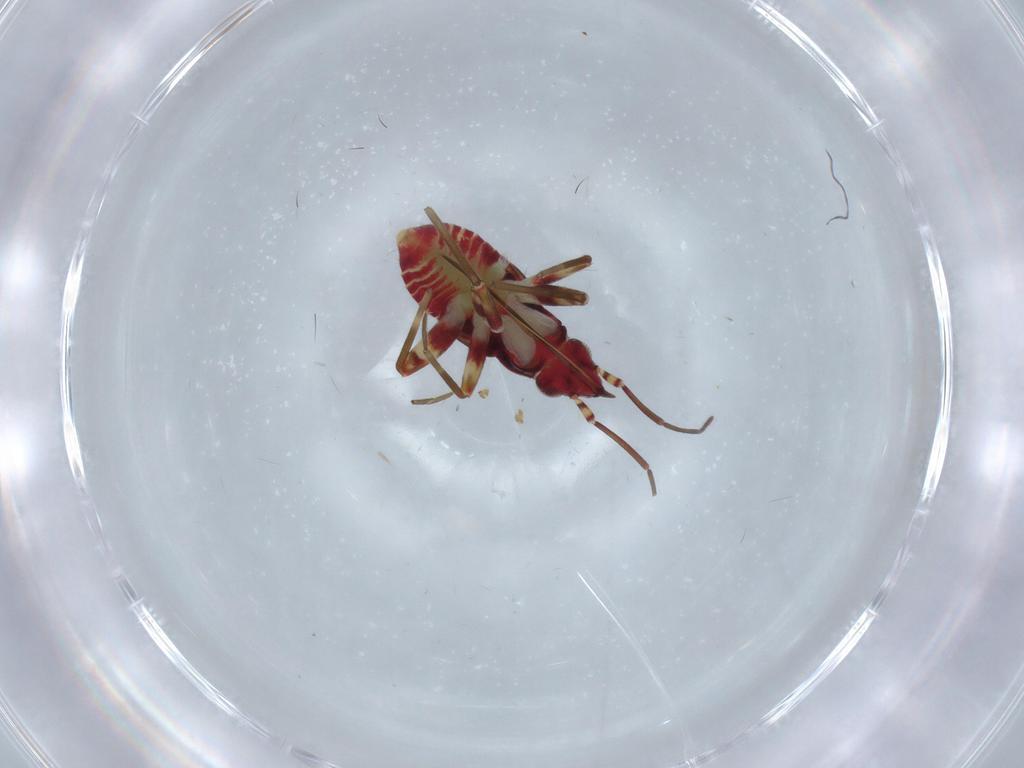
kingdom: Animalia
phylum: Arthropoda
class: Insecta
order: Hemiptera
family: Miridae
